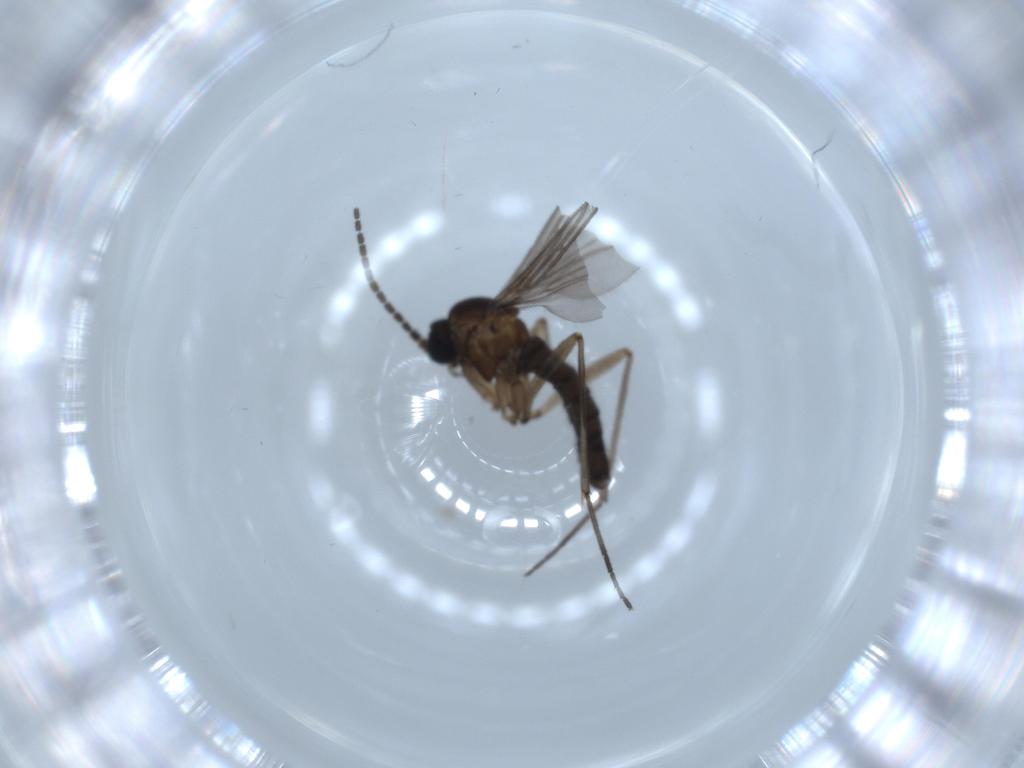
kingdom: Animalia
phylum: Arthropoda
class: Insecta
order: Diptera
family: Sciaridae
